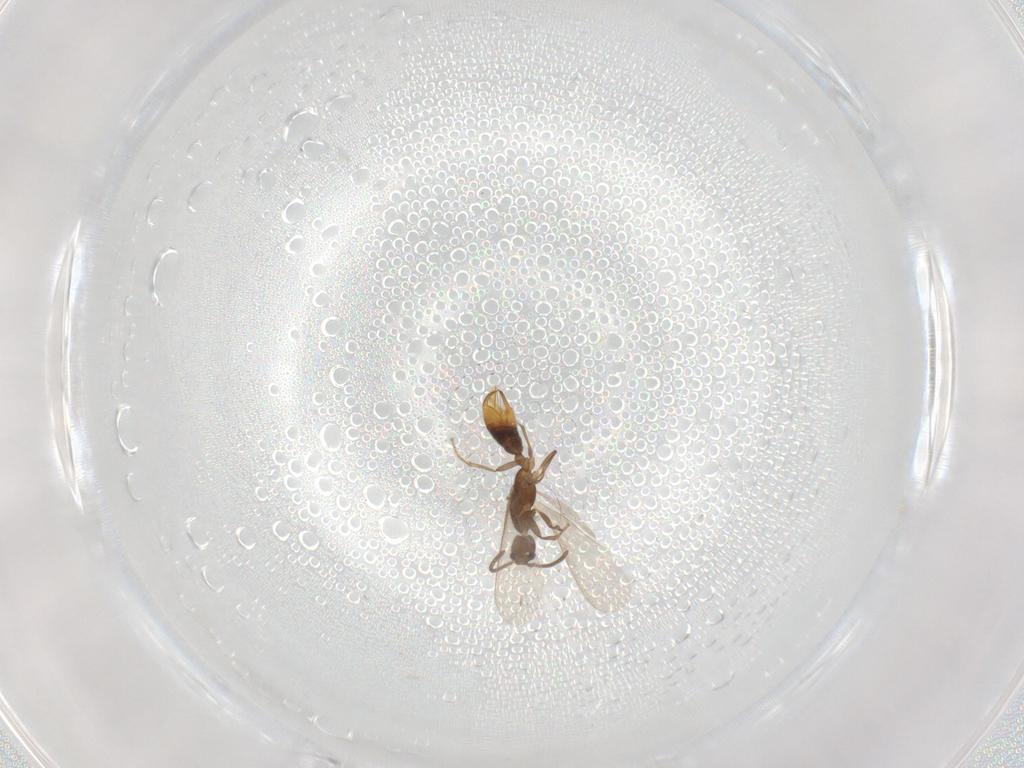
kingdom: Animalia
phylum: Arthropoda
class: Insecta
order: Hymenoptera
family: Formicidae
